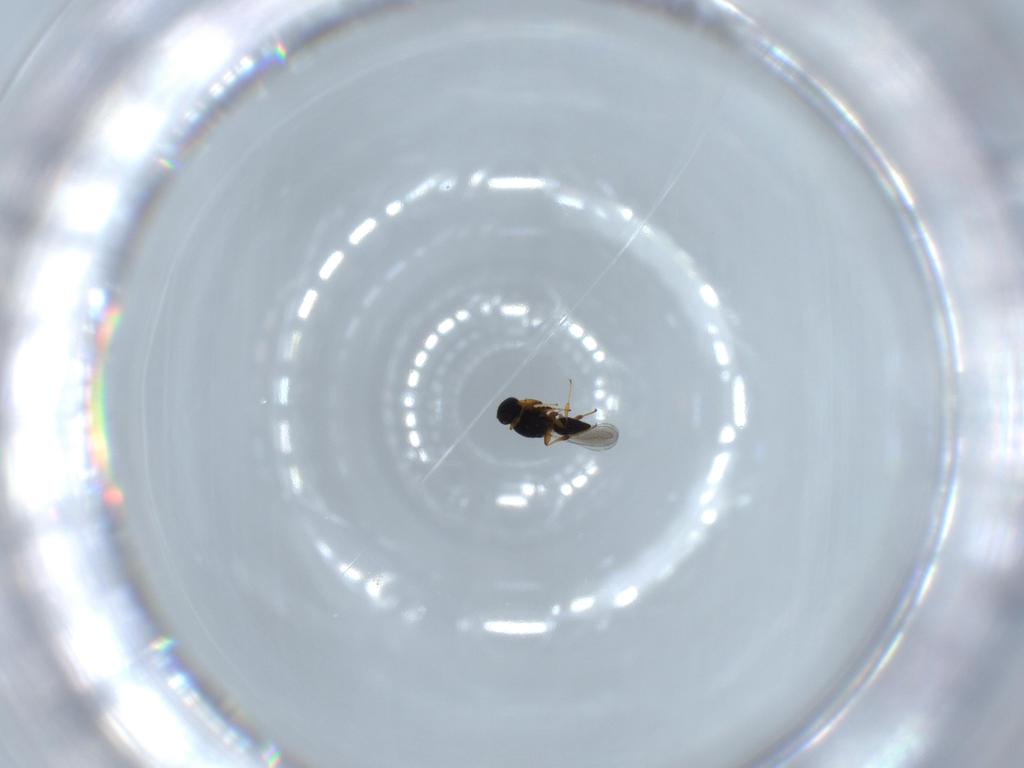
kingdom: Animalia
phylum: Arthropoda
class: Insecta
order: Hymenoptera
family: Platygastridae
